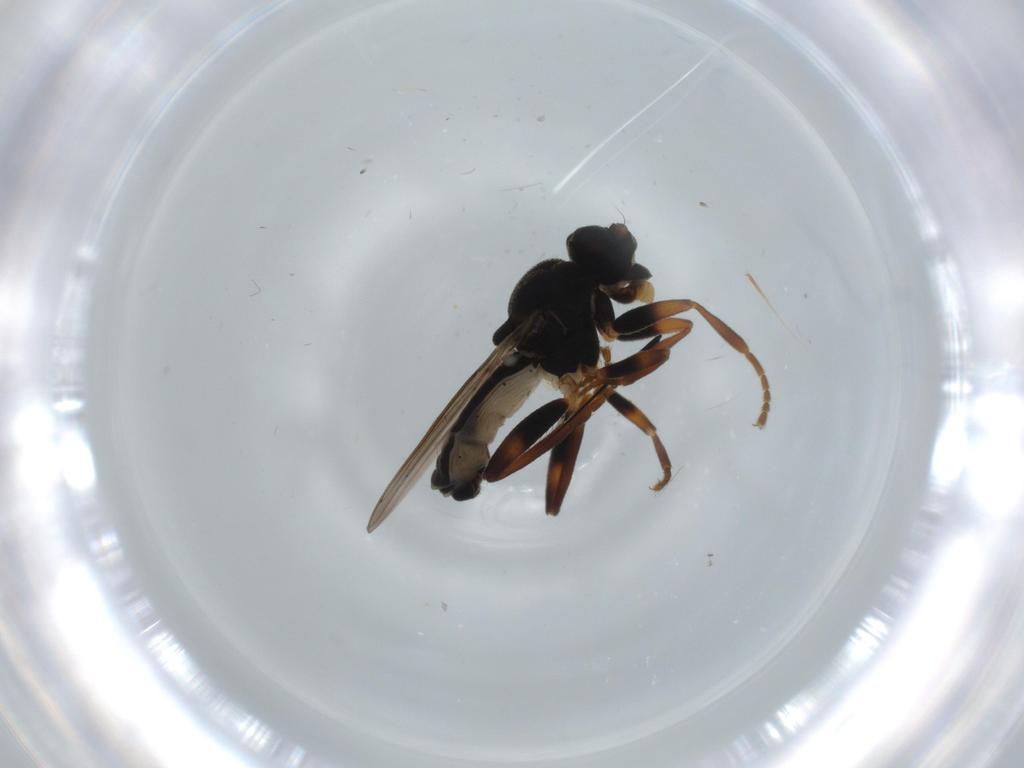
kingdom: Animalia
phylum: Arthropoda
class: Insecta
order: Diptera
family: Sphaeroceridae
